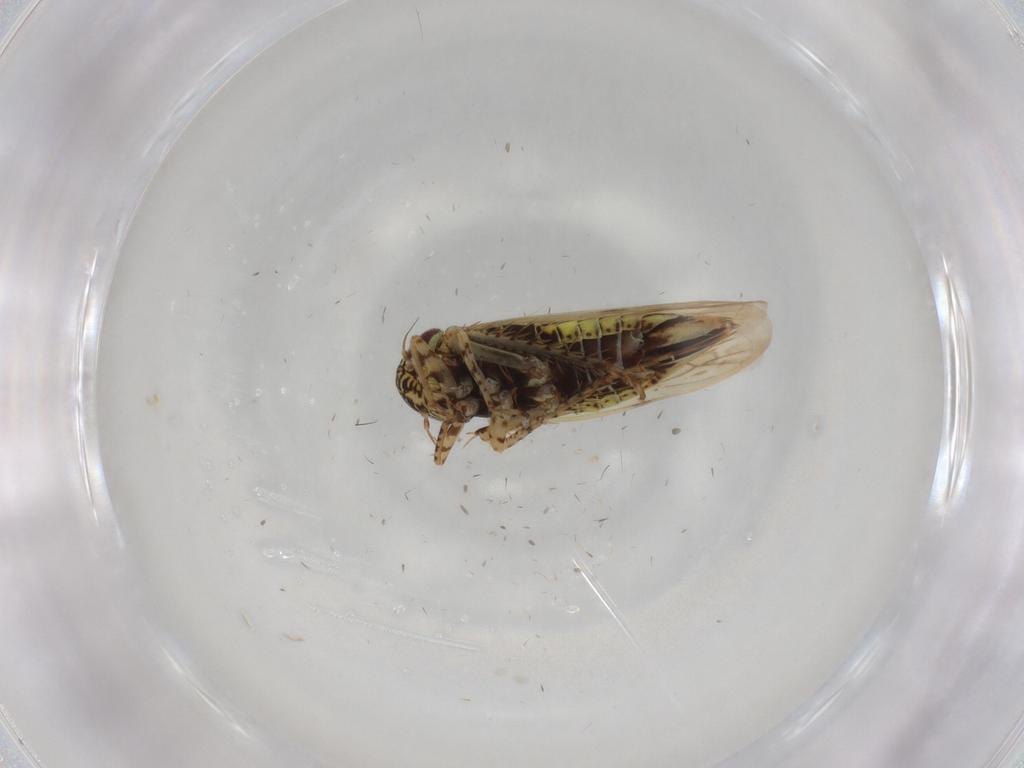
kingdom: Animalia
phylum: Arthropoda
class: Insecta
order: Hemiptera
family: Cicadellidae
